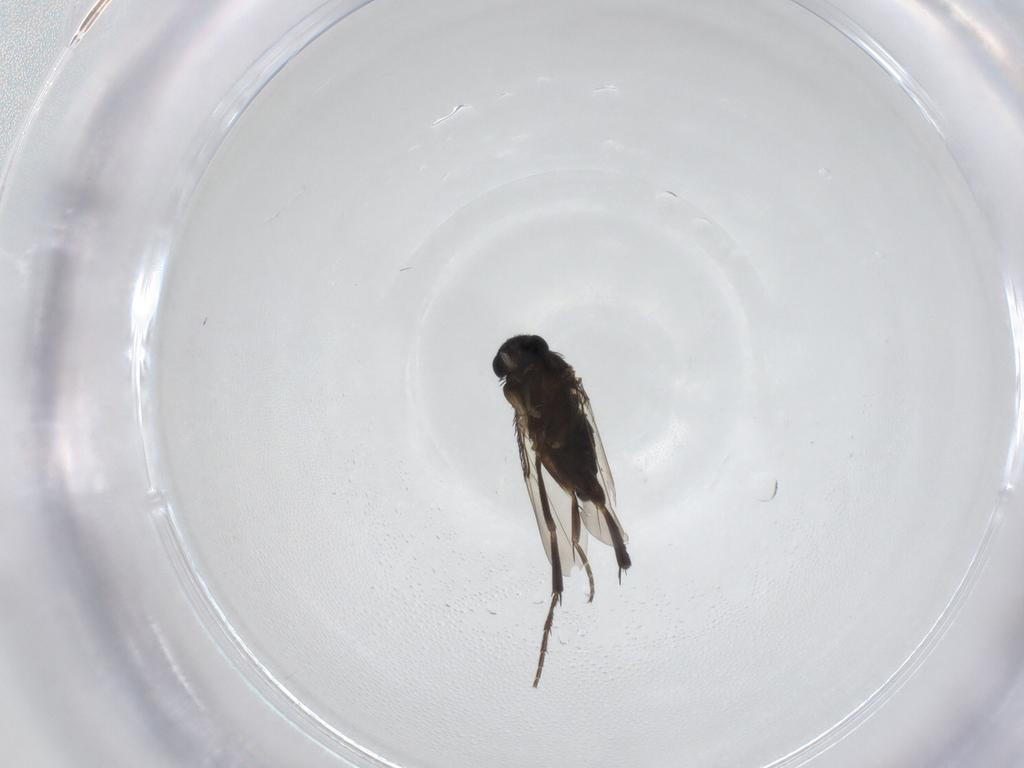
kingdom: Animalia
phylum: Arthropoda
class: Insecta
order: Diptera
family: Phoridae
